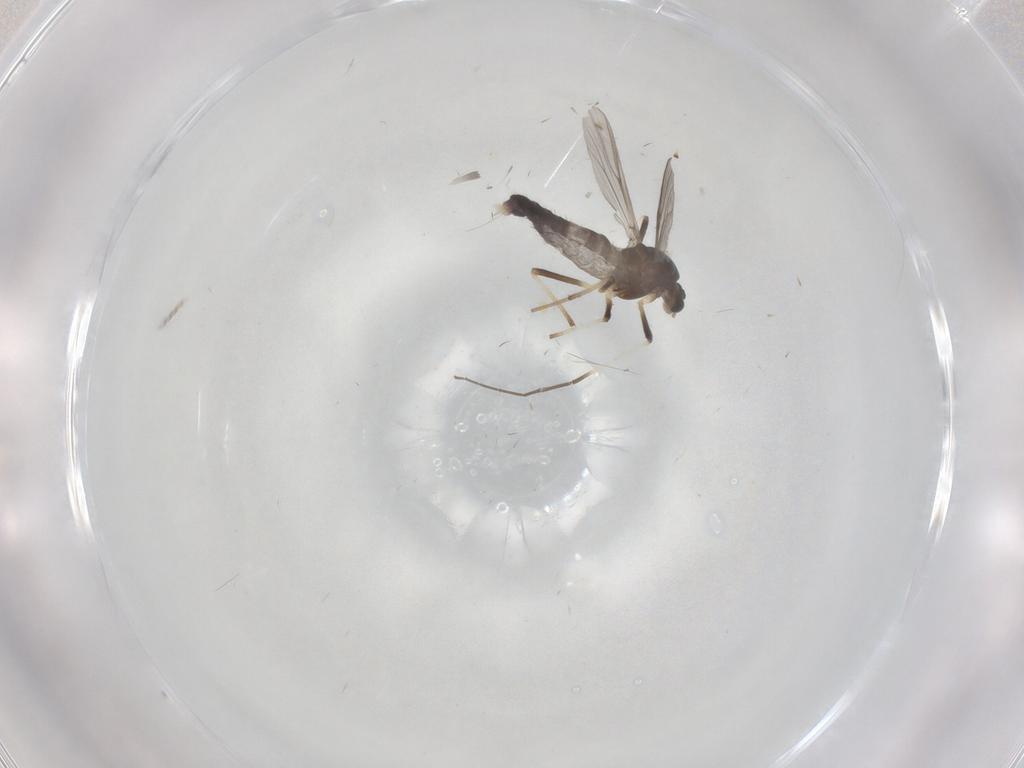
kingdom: Animalia
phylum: Arthropoda
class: Insecta
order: Diptera
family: Chironomidae
